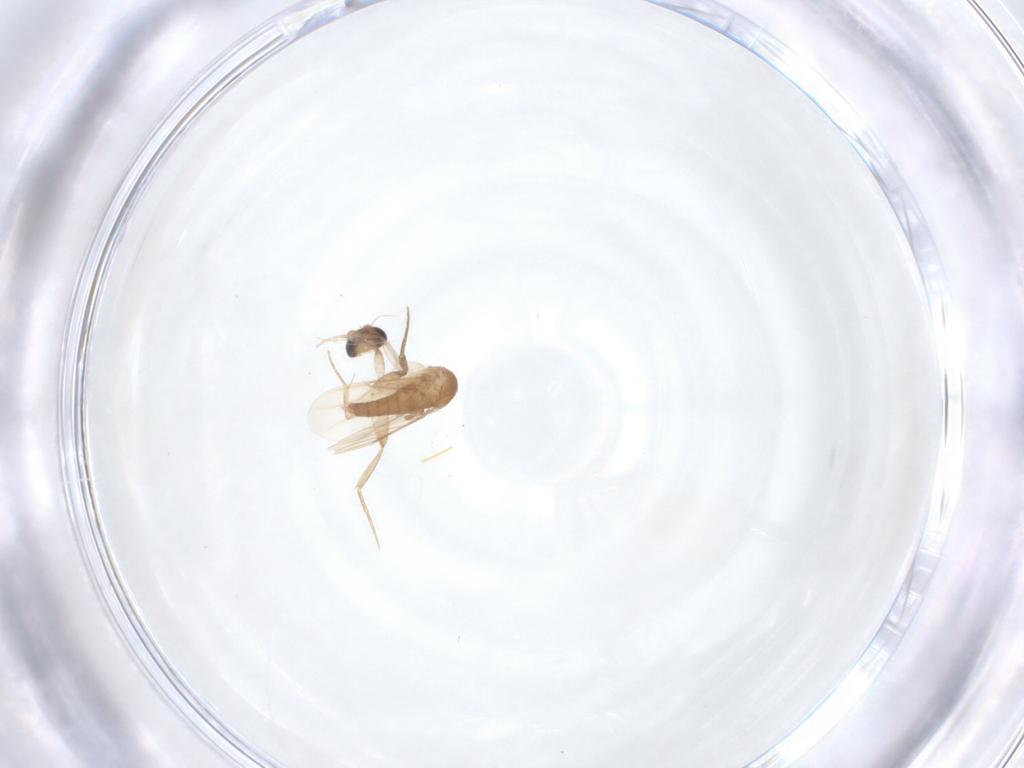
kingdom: Animalia
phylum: Arthropoda
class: Insecta
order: Diptera
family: Phoridae
